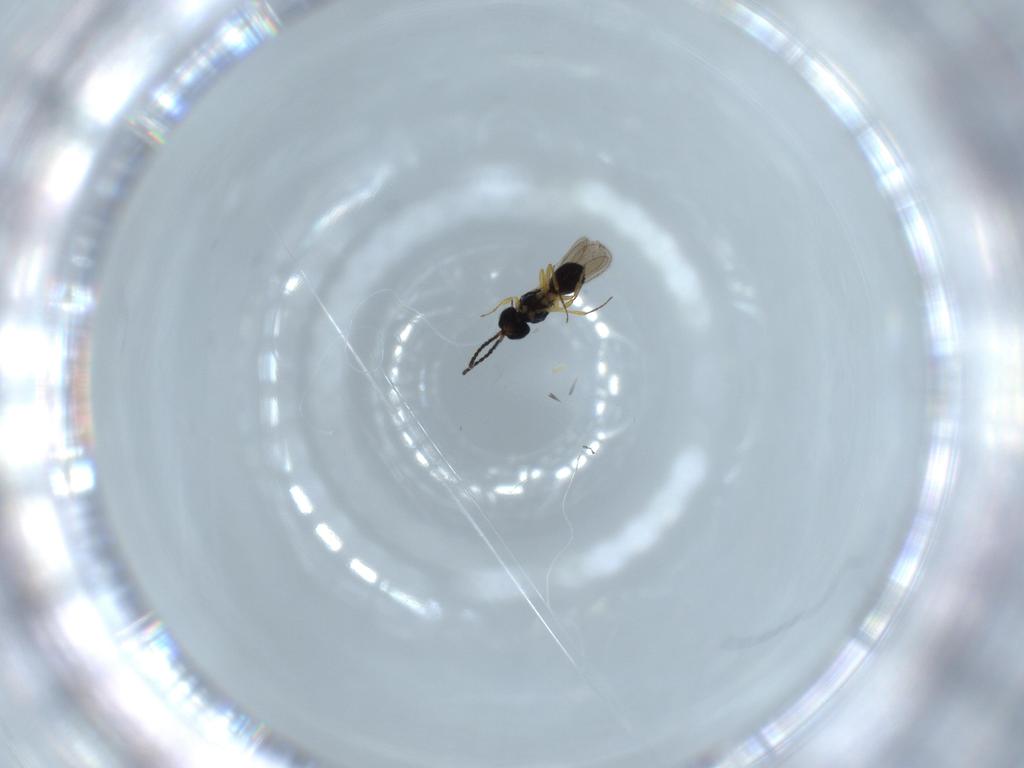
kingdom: Animalia
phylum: Arthropoda
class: Insecta
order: Hymenoptera
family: Scelionidae
